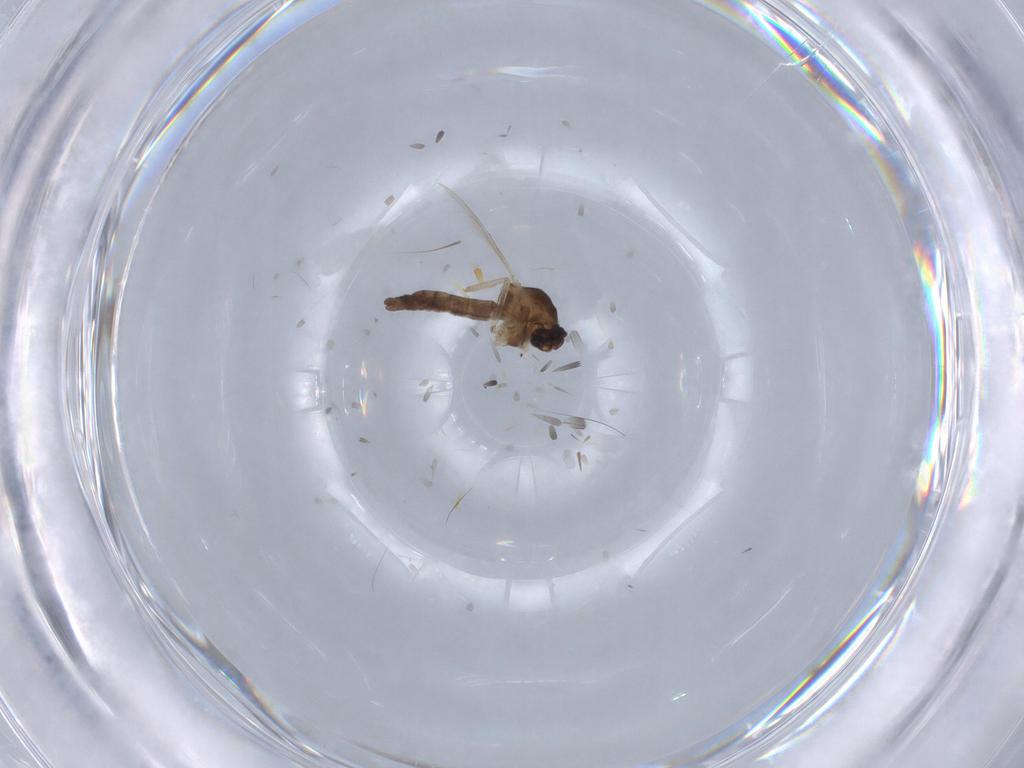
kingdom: Animalia
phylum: Arthropoda
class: Insecta
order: Diptera
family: Ceratopogonidae
